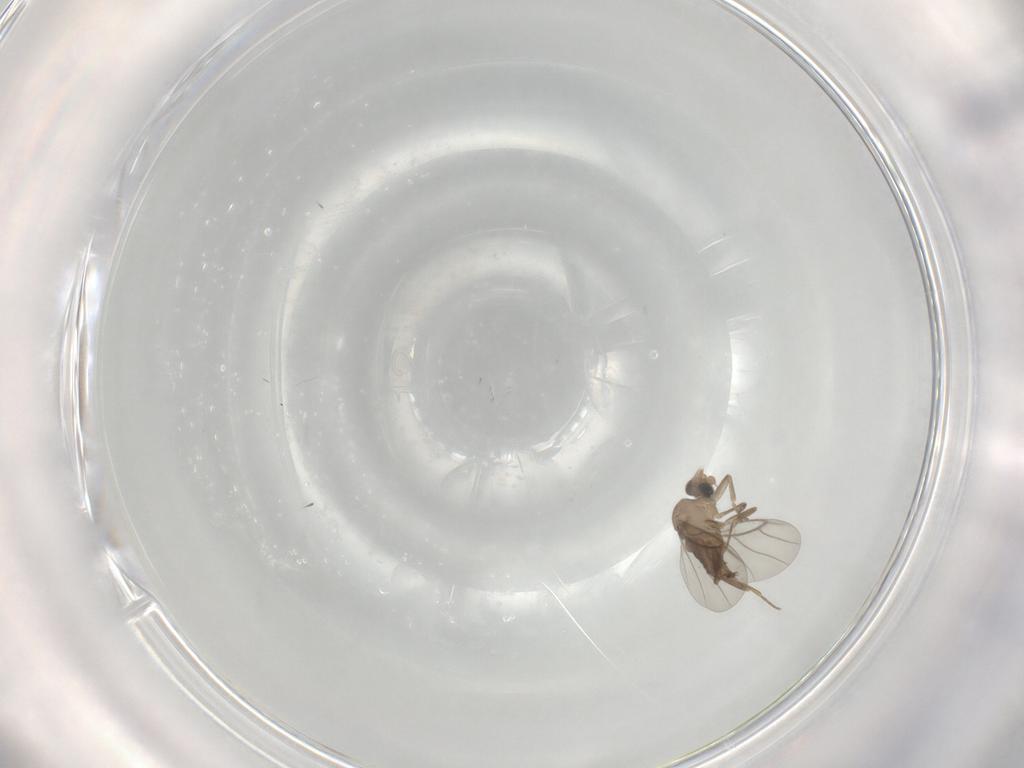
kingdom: Animalia
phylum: Arthropoda
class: Insecta
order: Diptera
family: Cecidomyiidae
